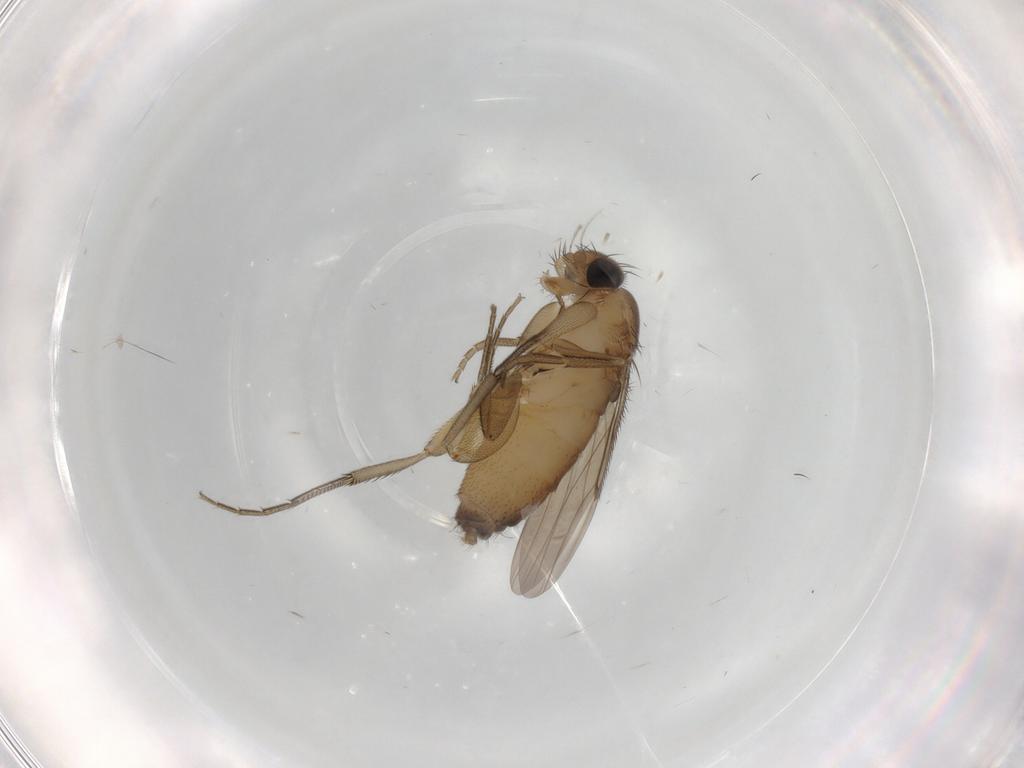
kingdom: Animalia
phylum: Arthropoda
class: Insecta
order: Diptera
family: Phoridae
